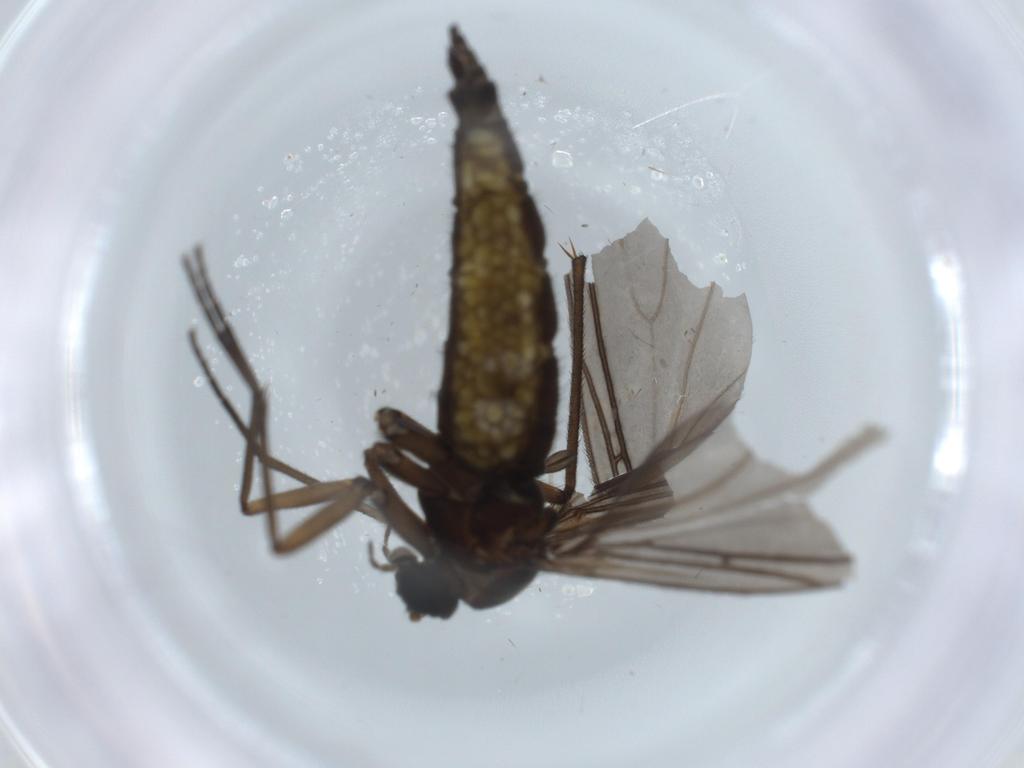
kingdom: Animalia
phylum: Arthropoda
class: Insecta
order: Diptera
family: Sciaridae
